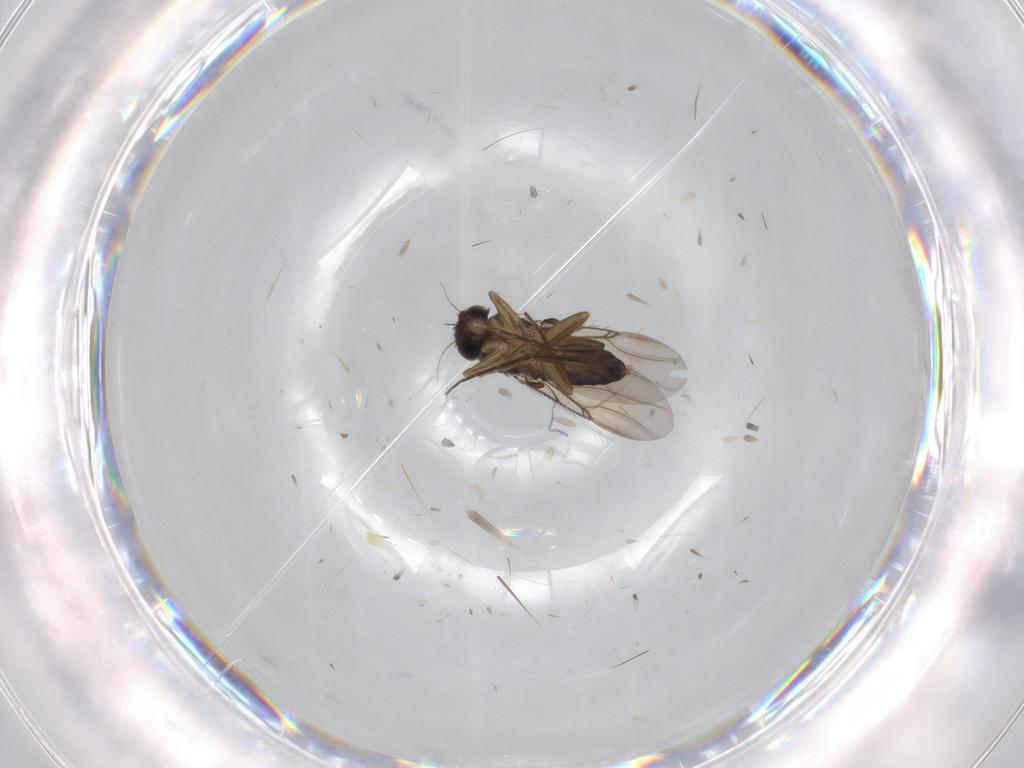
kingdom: Animalia
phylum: Arthropoda
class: Insecta
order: Diptera
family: Phoridae
